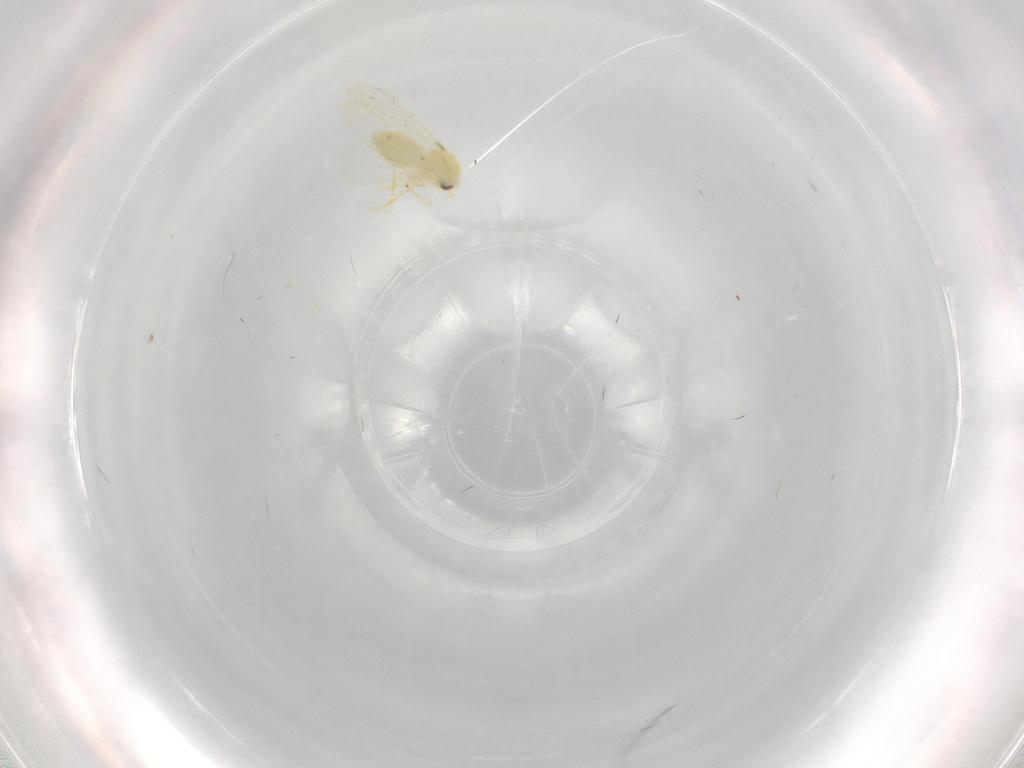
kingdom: Animalia
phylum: Arthropoda
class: Insecta
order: Hemiptera
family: Aleyrodidae
